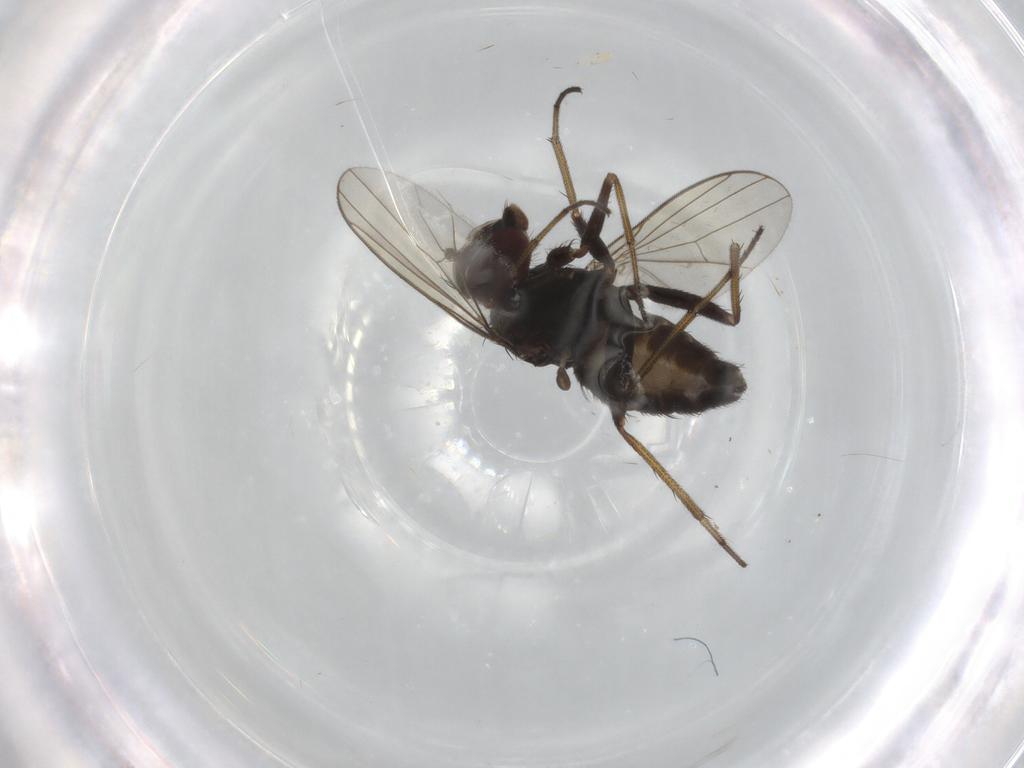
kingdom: Animalia
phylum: Arthropoda
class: Insecta
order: Diptera
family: Dolichopodidae
